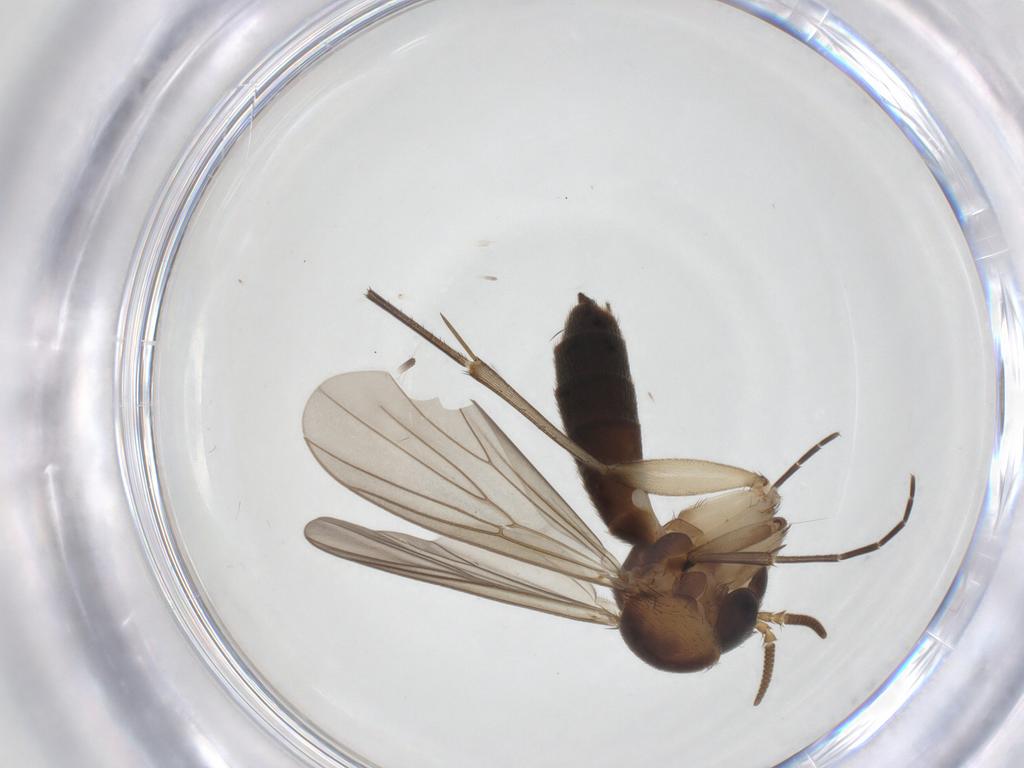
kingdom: Animalia
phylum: Arthropoda
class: Insecta
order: Diptera
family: Mycetophilidae
